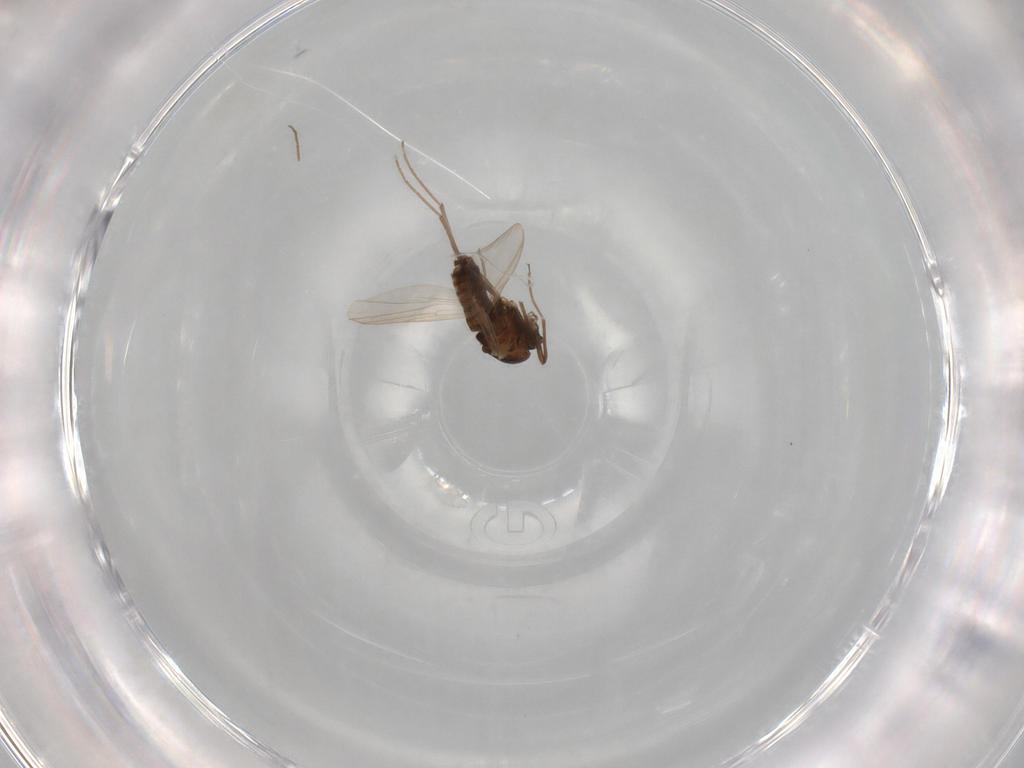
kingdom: Animalia
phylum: Arthropoda
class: Insecta
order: Diptera
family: Chironomidae
